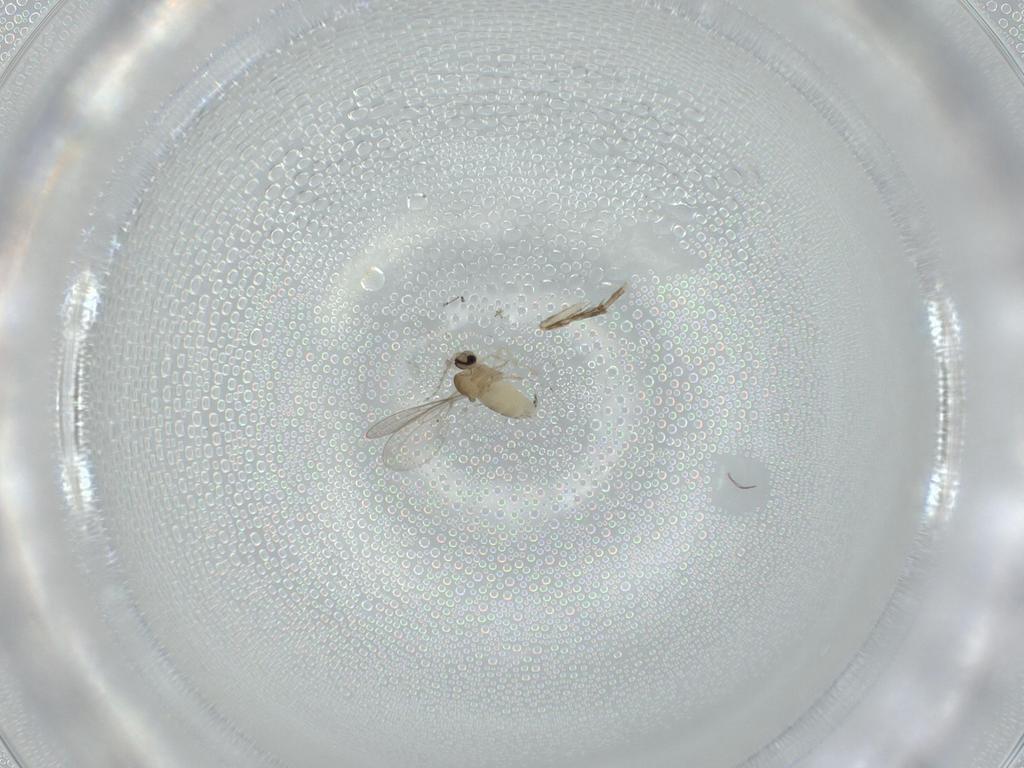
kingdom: Animalia
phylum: Arthropoda
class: Insecta
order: Diptera
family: Cecidomyiidae
